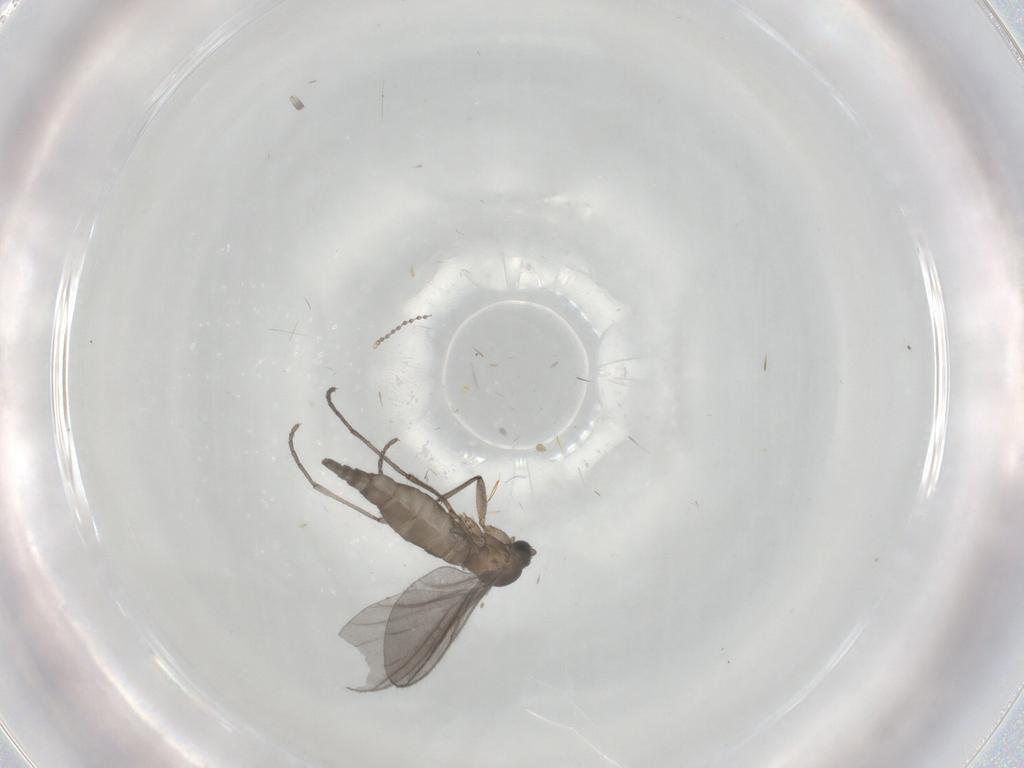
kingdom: Animalia
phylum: Arthropoda
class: Insecta
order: Diptera
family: Sciaridae
